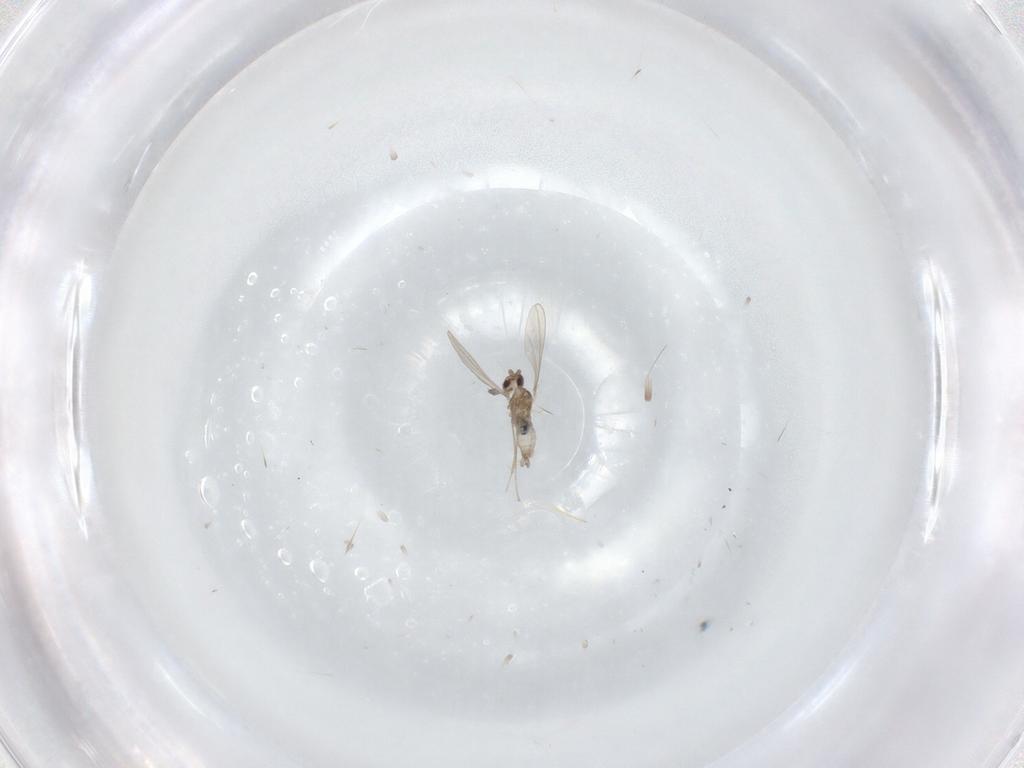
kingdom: Animalia
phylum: Arthropoda
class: Insecta
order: Diptera
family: Cecidomyiidae
